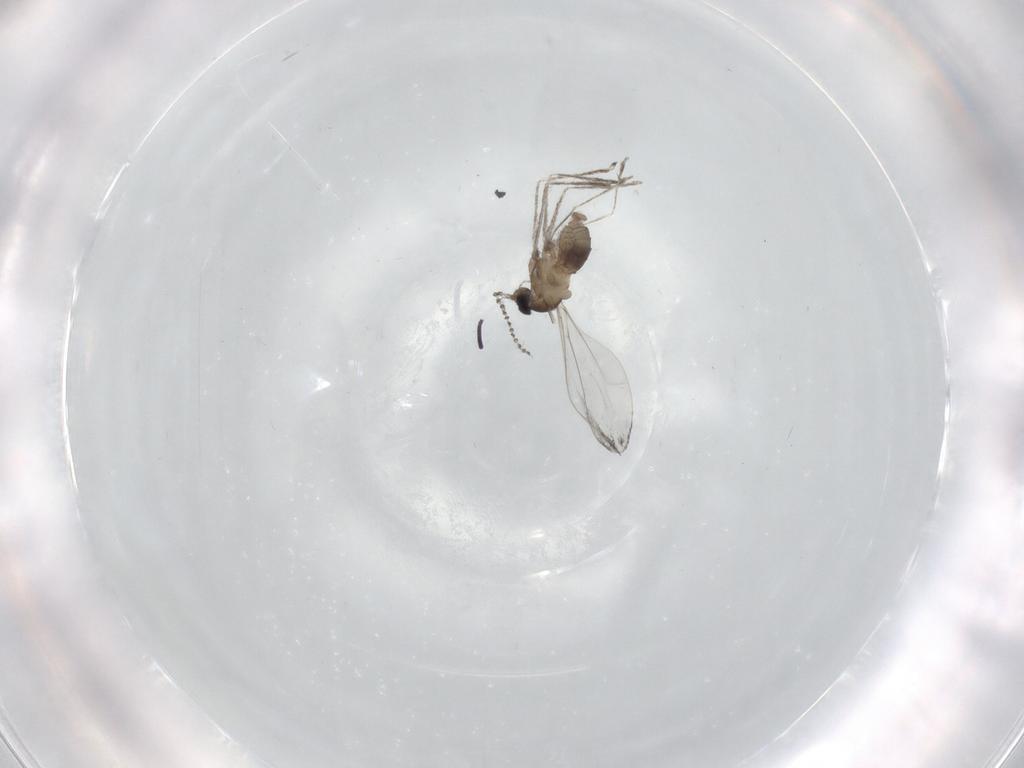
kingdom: Animalia
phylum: Arthropoda
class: Insecta
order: Diptera
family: Cecidomyiidae
